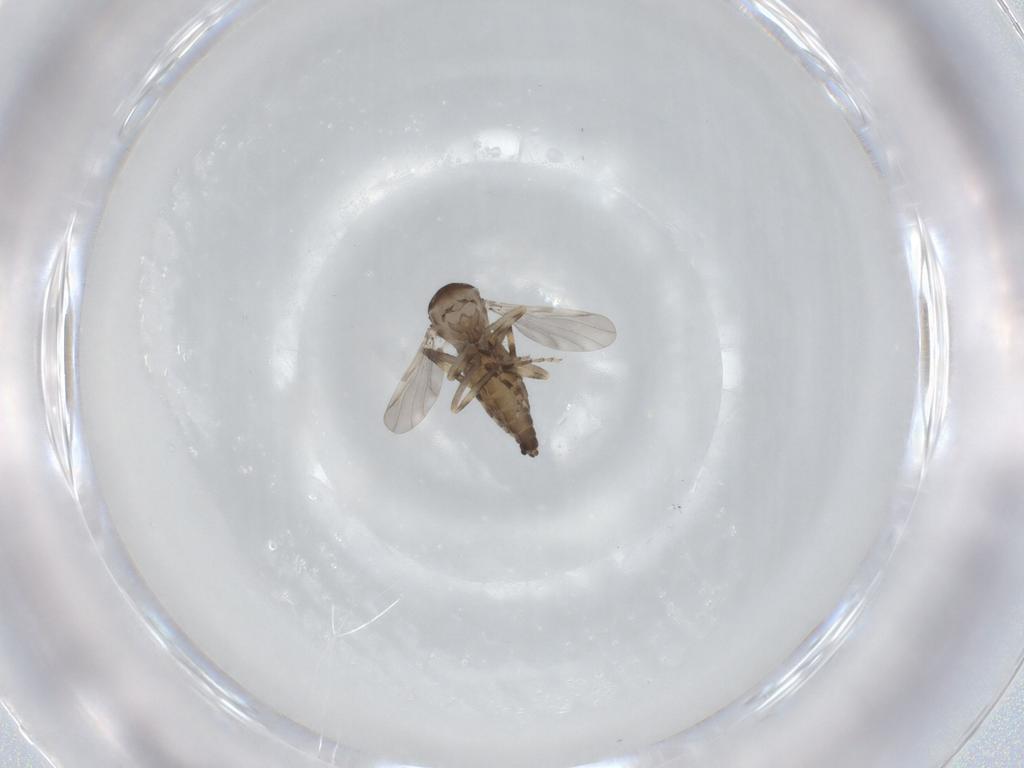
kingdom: Animalia
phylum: Arthropoda
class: Insecta
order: Diptera
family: Ceratopogonidae
